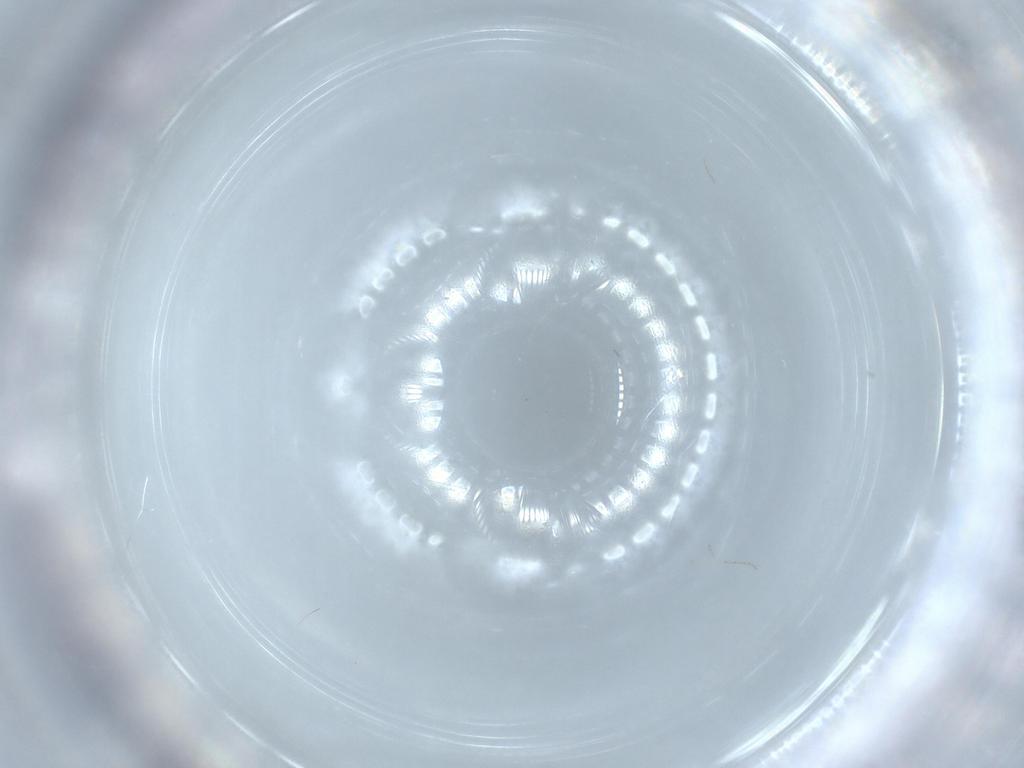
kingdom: Animalia
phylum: Arthropoda
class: Insecta
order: Diptera
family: Cecidomyiidae
